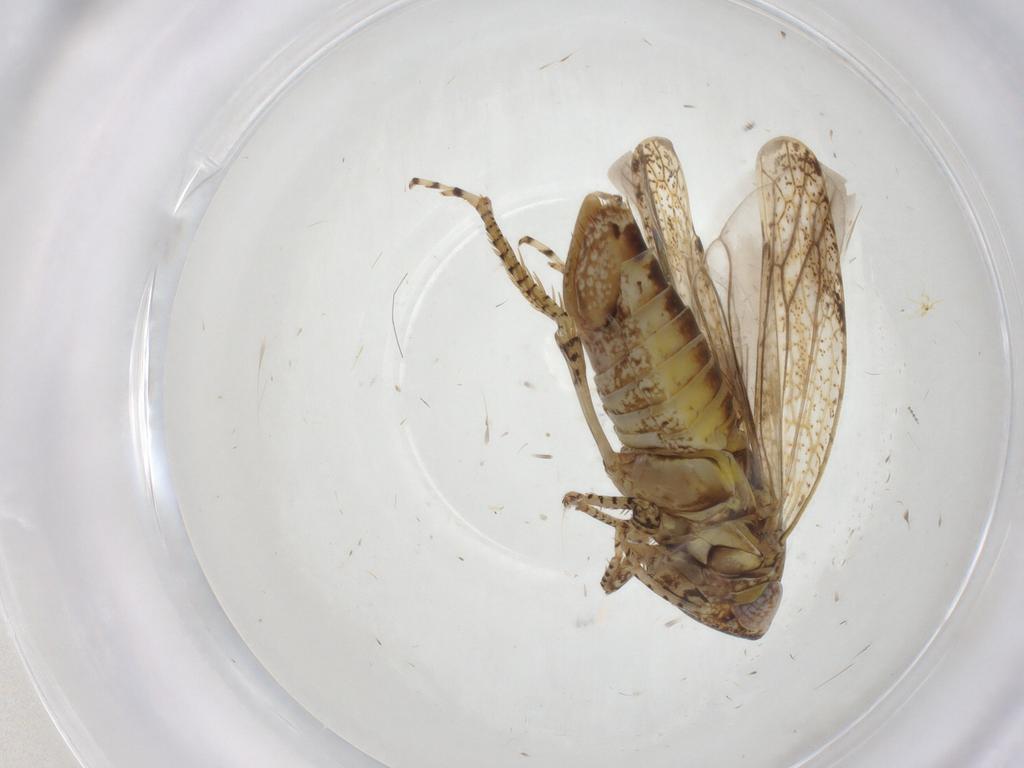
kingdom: Animalia
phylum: Arthropoda
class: Insecta
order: Hemiptera
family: Cicadellidae
